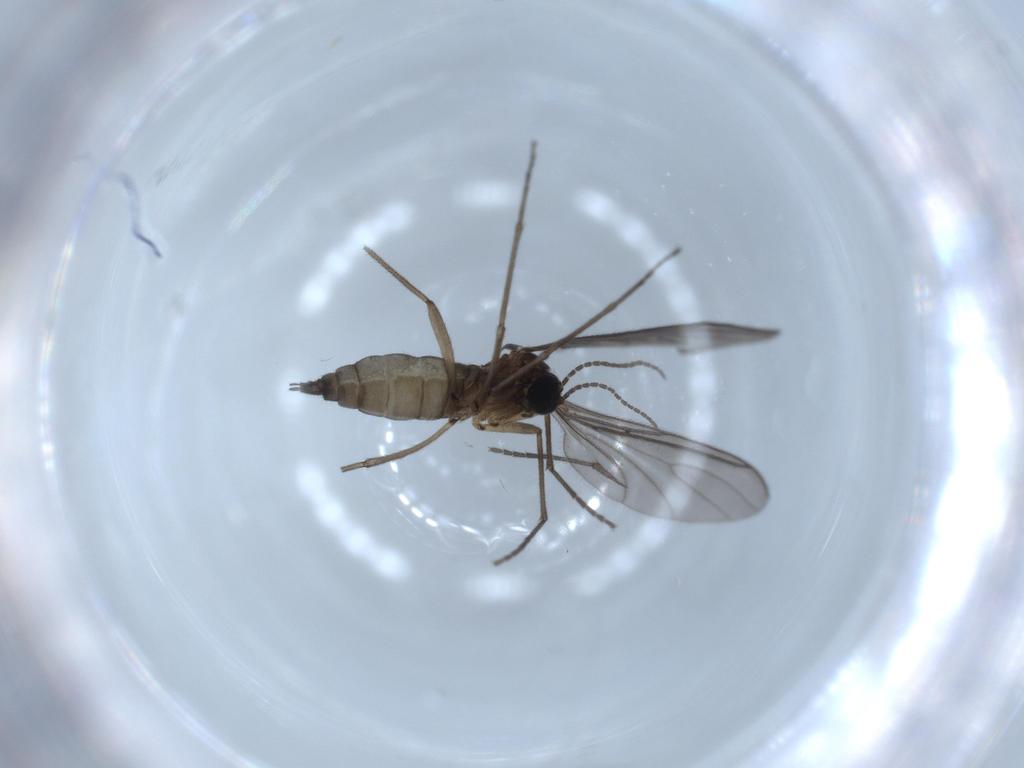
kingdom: Animalia
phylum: Arthropoda
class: Insecta
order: Diptera
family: Sciaridae
